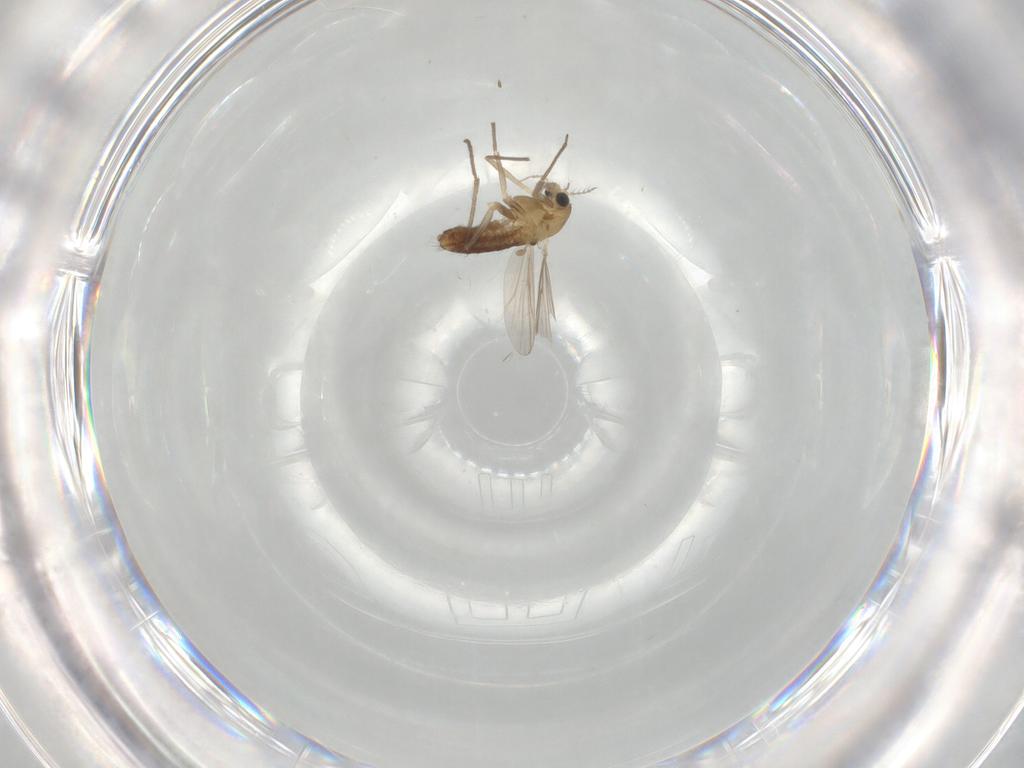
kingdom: Animalia
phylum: Arthropoda
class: Insecta
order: Diptera
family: Chironomidae
